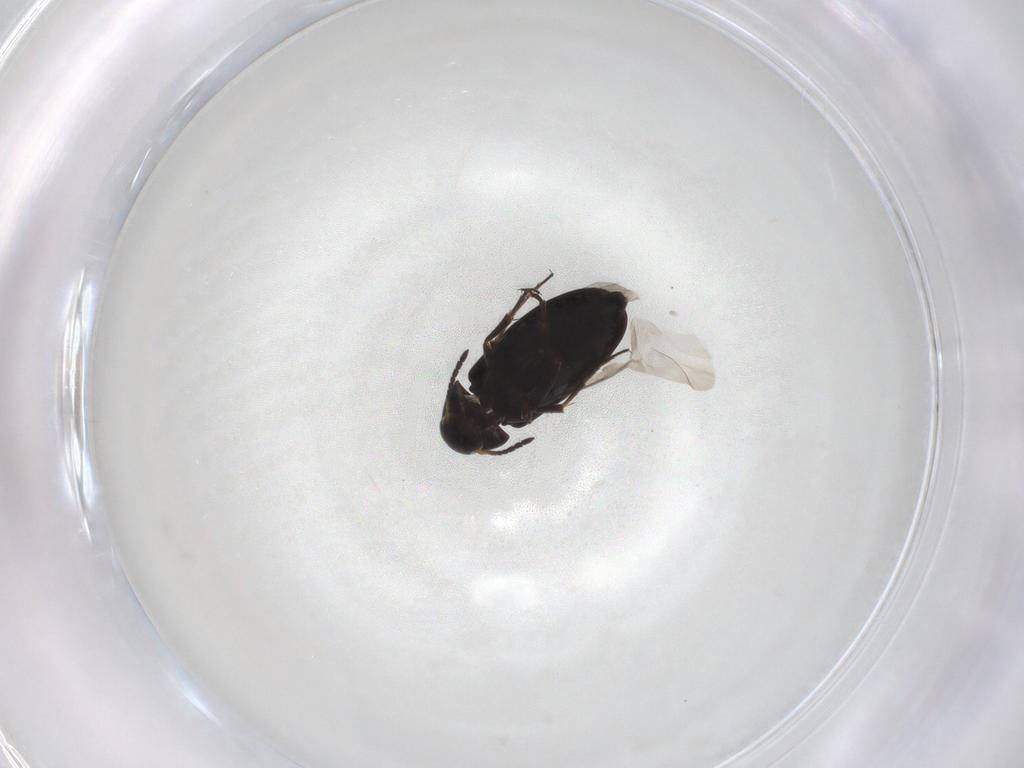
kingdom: Animalia
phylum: Arthropoda
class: Insecta
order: Coleoptera
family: Scraptiidae
